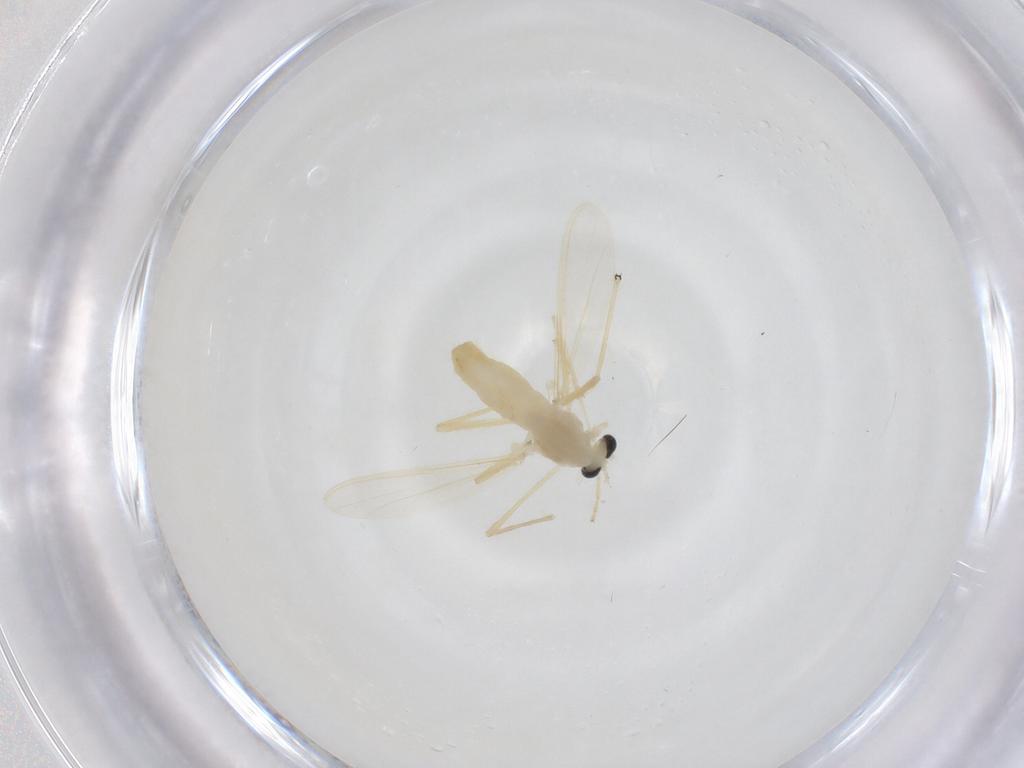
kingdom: Animalia
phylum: Arthropoda
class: Insecta
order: Diptera
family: Chironomidae
